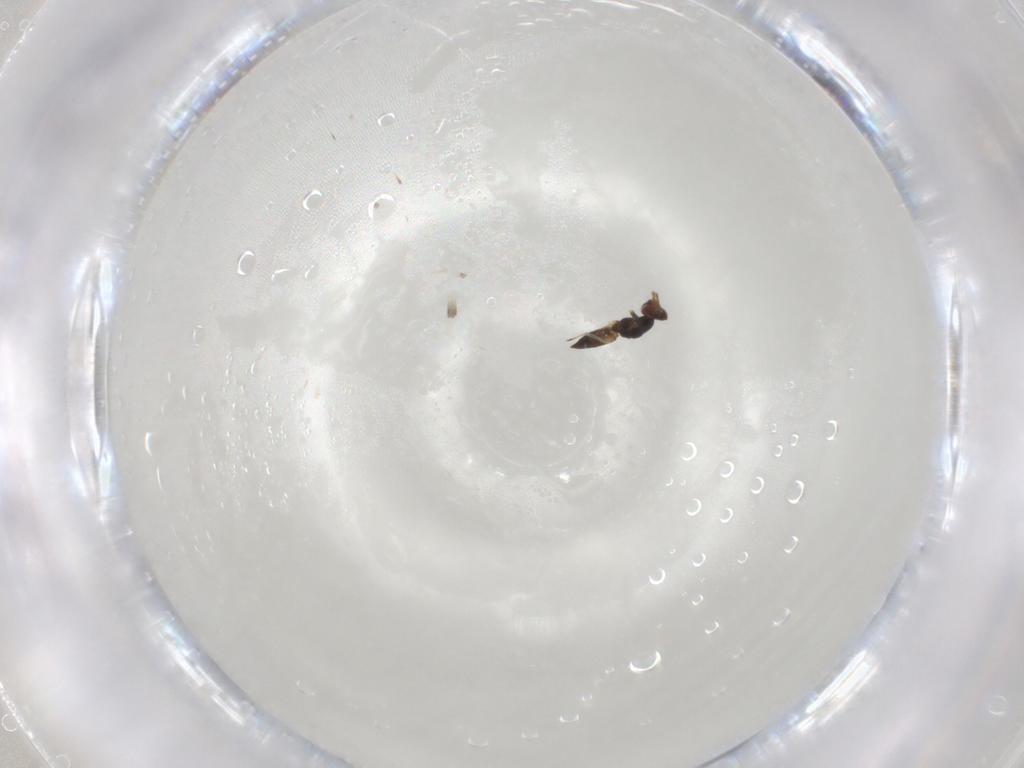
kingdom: Animalia
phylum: Arthropoda
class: Insecta
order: Hymenoptera
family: Eulophidae
